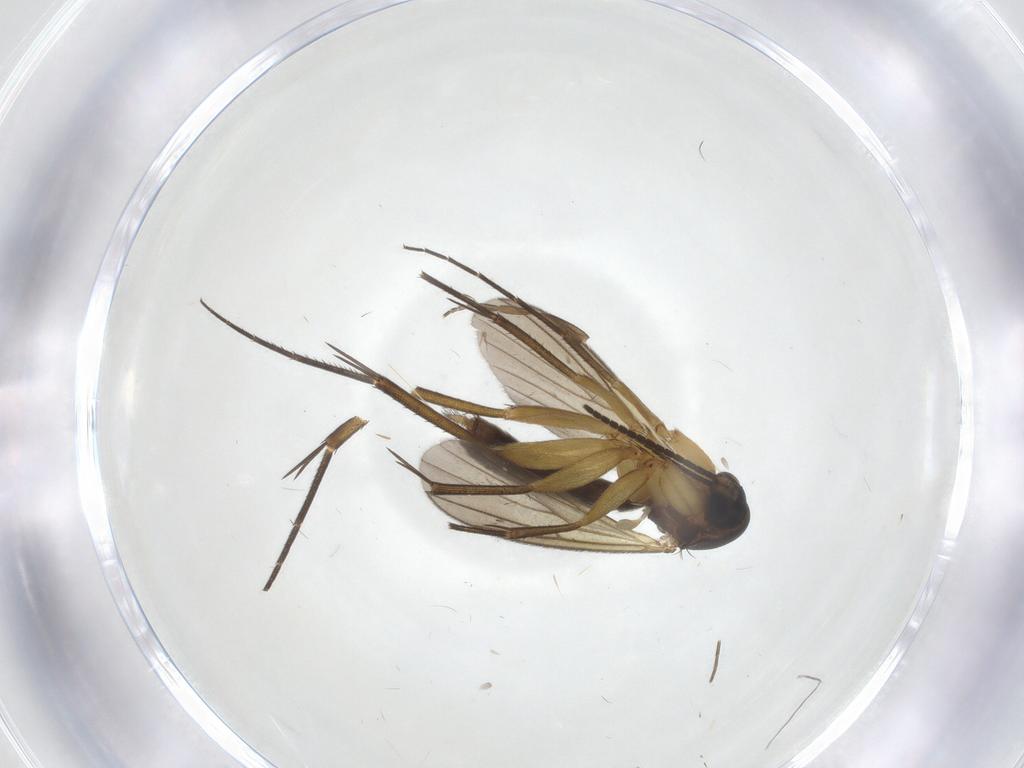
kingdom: Animalia
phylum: Arthropoda
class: Insecta
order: Diptera
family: Mycetophilidae
